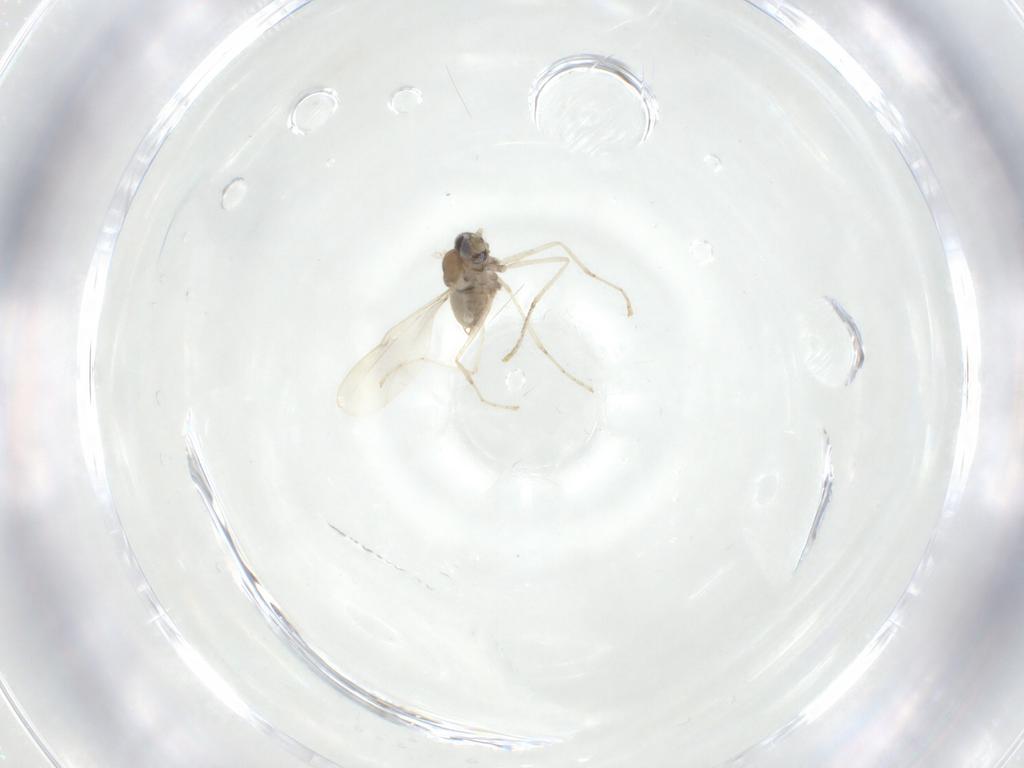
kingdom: Animalia
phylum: Arthropoda
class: Insecta
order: Diptera
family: Cecidomyiidae
